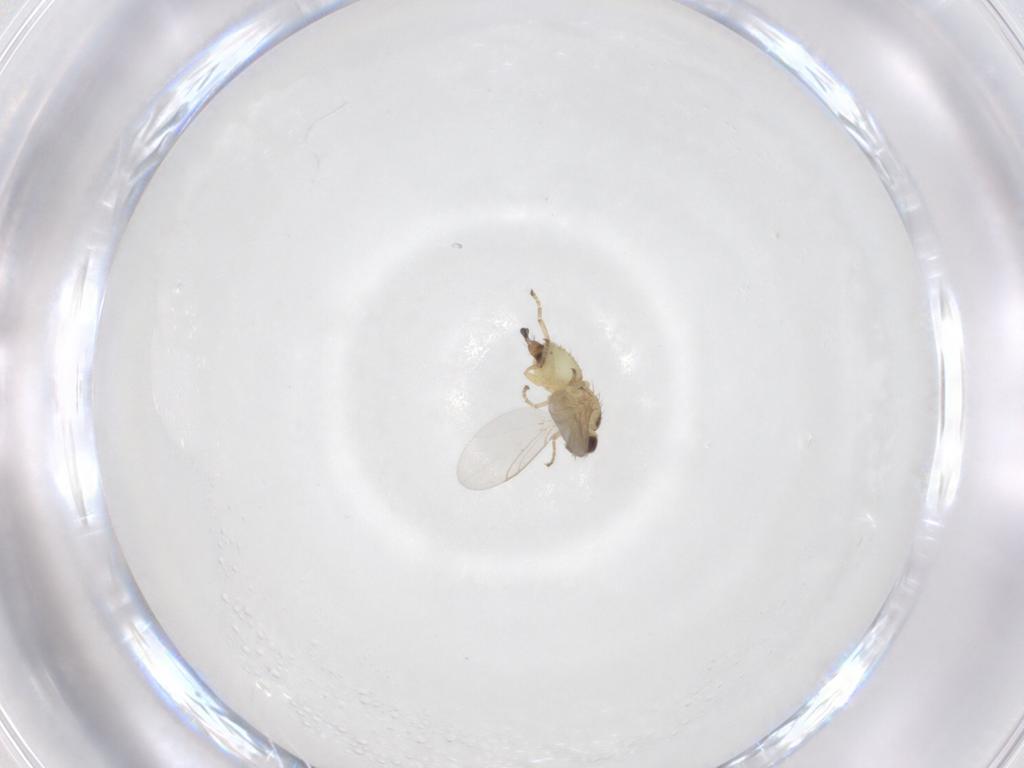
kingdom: Animalia
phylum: Arthropoda
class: Insecta
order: Diptera
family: Agromyzidae
